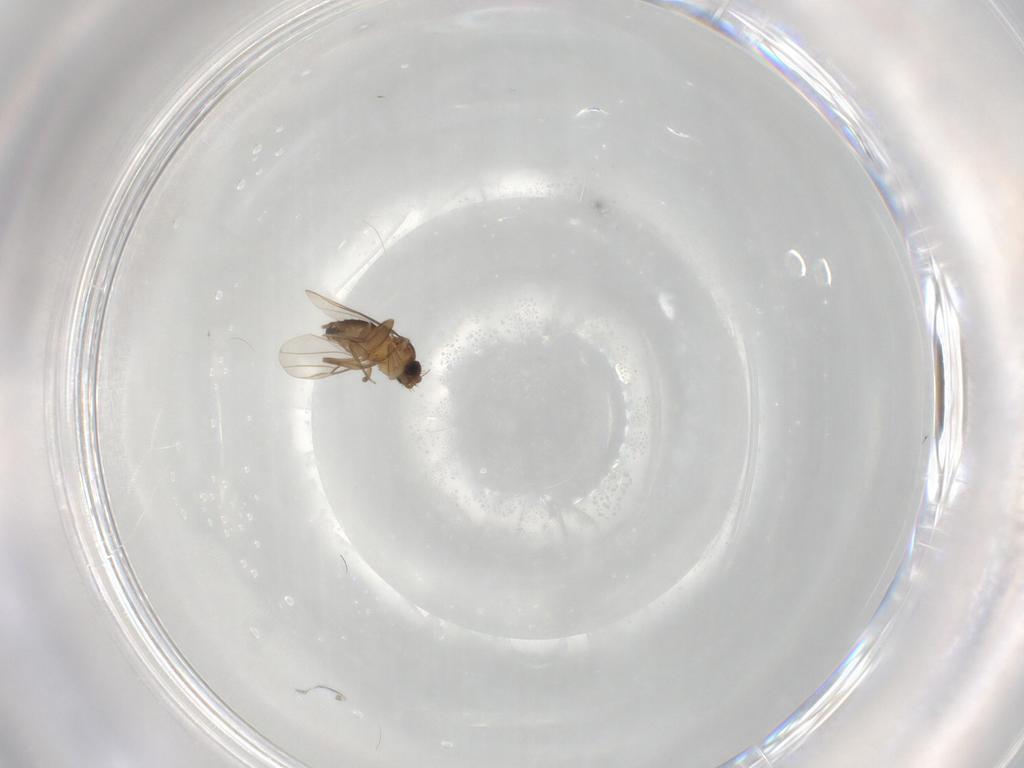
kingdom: Animalia
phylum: Arthropoda
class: Insecta
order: Diptera
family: Phoridae
